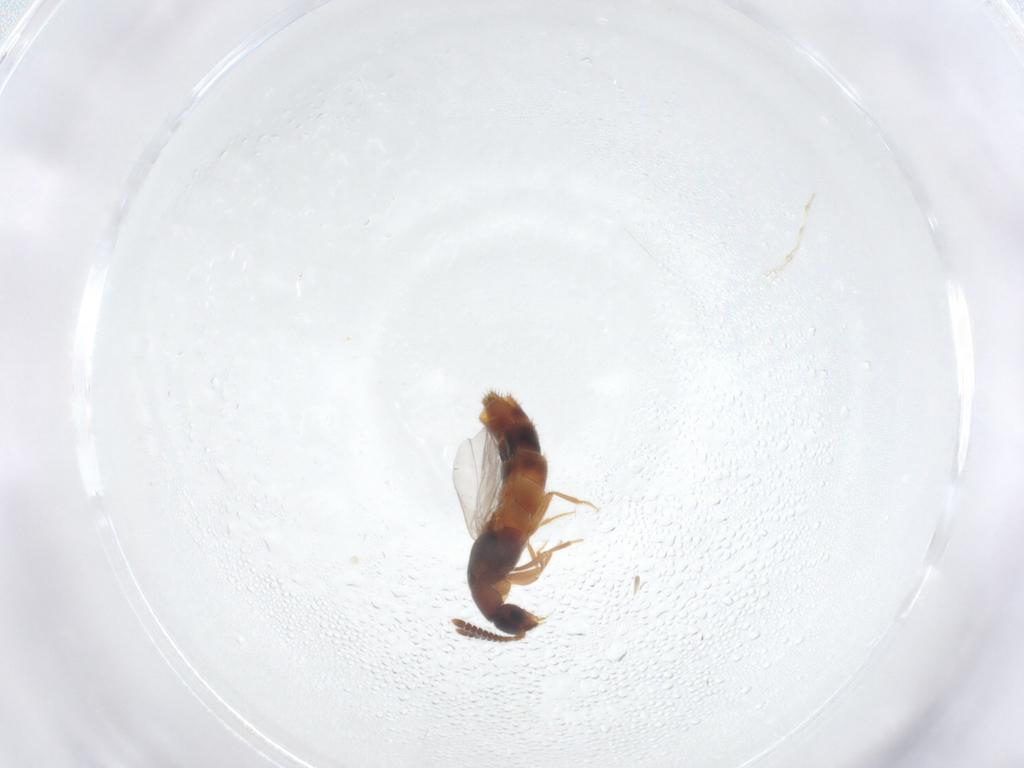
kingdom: Animalia
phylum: Arthropoda
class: Insecta
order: Coleoptera
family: Staphylinidae
